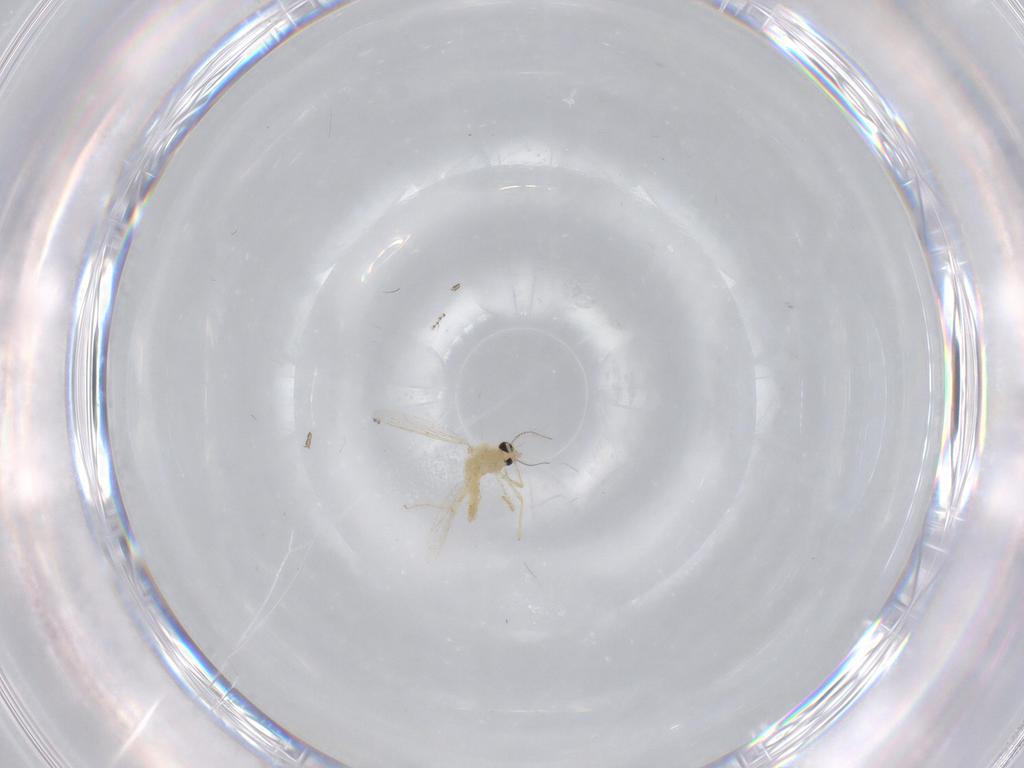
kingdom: Animalia
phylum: Arthropoda
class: Insecta
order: Diptera
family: Chironomidae
